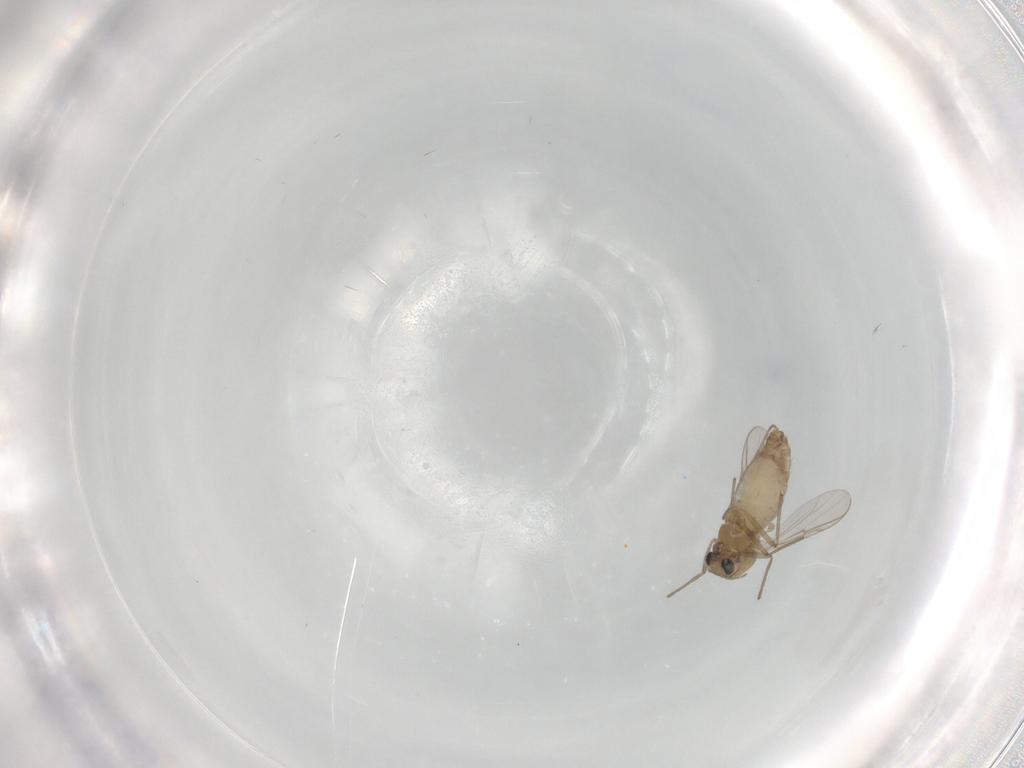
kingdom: Animalia
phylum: Arthropoda
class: Insecta
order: Diptera
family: Chironomidae
